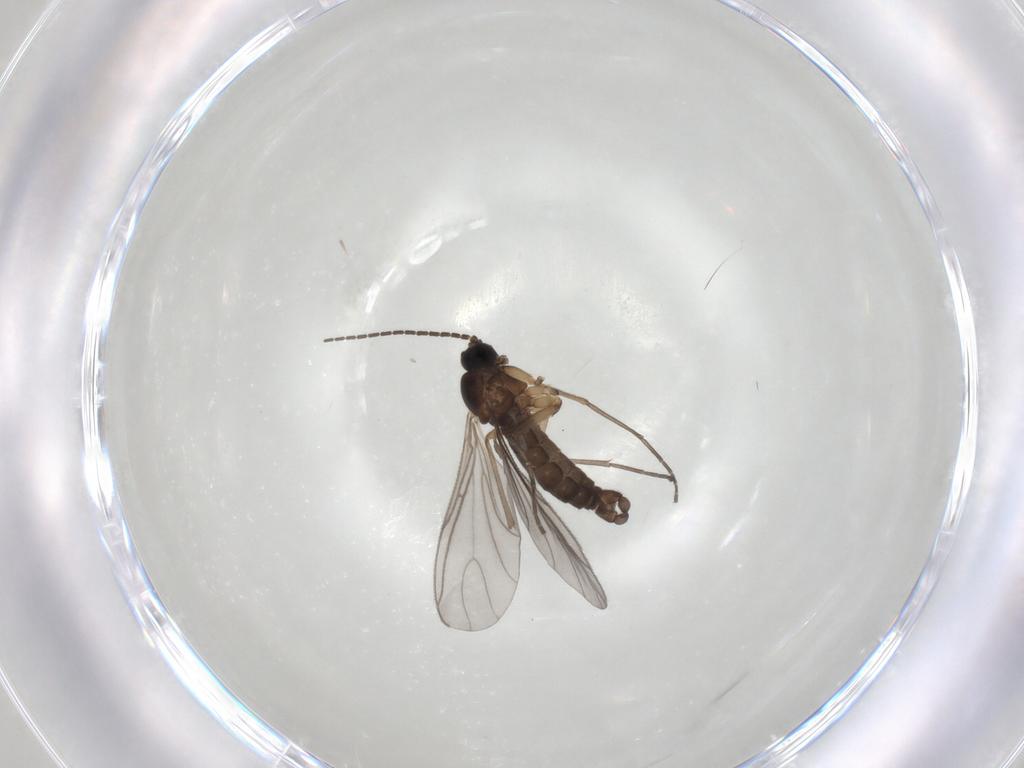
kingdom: Animalia
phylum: Arthropoda
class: Insecta
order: Diptera
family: Sciaridae
